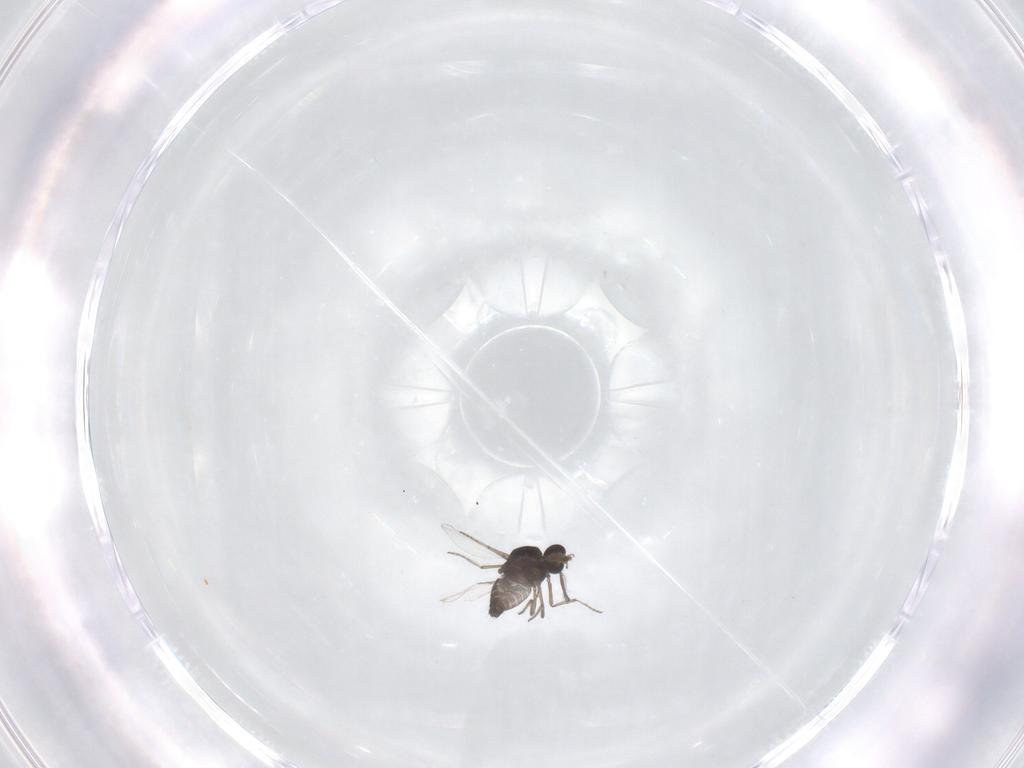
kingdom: Animalia
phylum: Arthropoda
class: Insecta
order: Diptera
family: Ceratopogonidae
